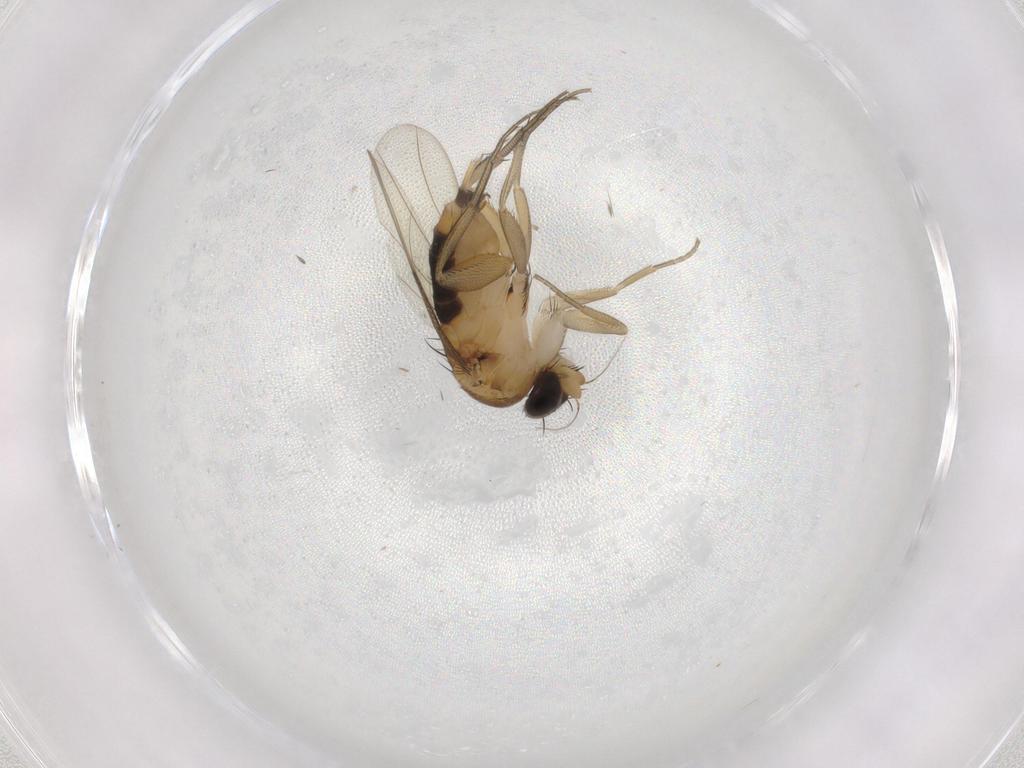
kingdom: Animalia
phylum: Arthropoda
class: Insecta
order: Diptera
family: Phoridae
